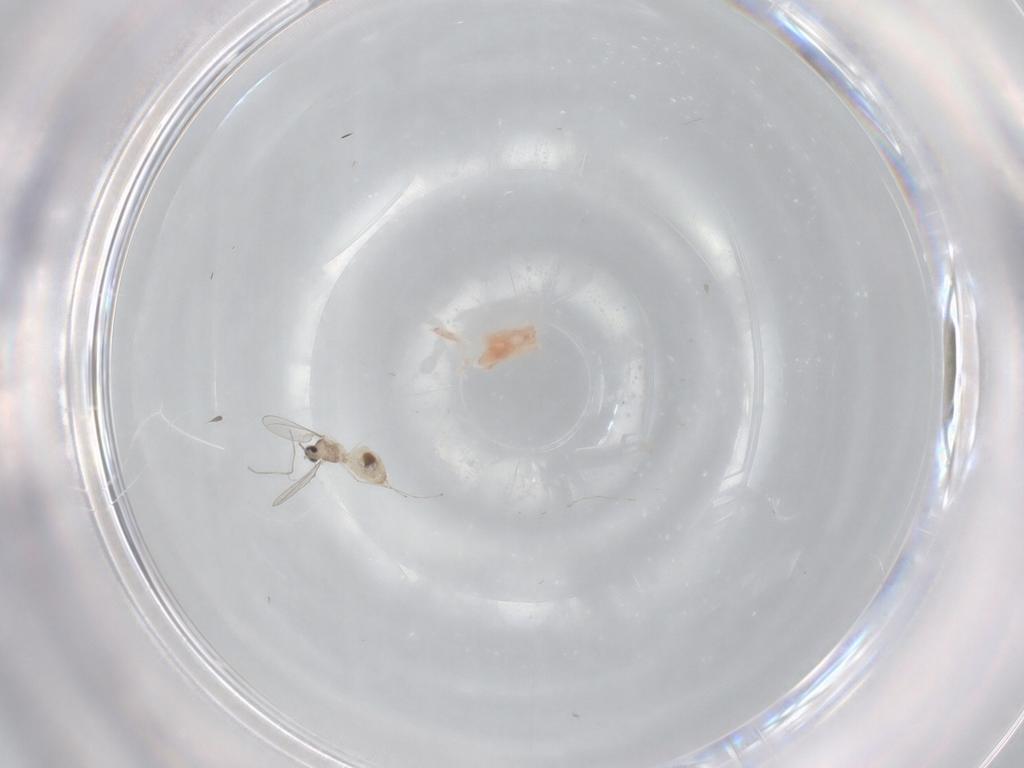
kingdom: Animalia
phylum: Arthropoda
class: Insecta
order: Diptera
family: Cecidomyiidae
